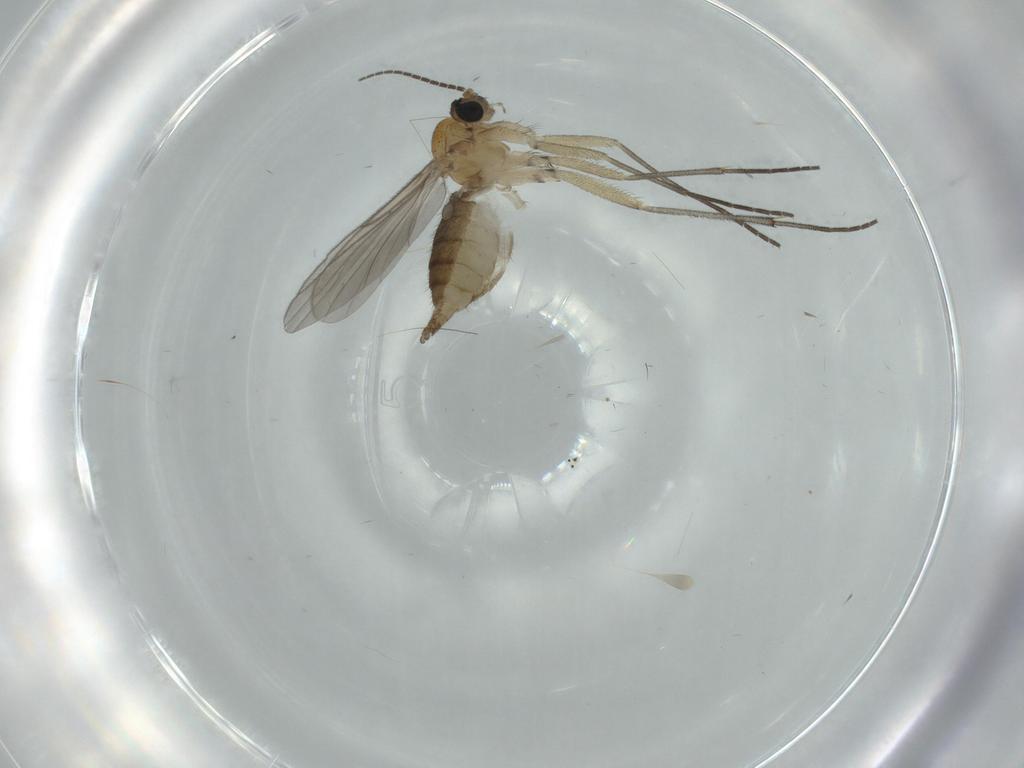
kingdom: Animalia
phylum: Arthropoda
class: Insecta
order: Diptera
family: Sciaridae
